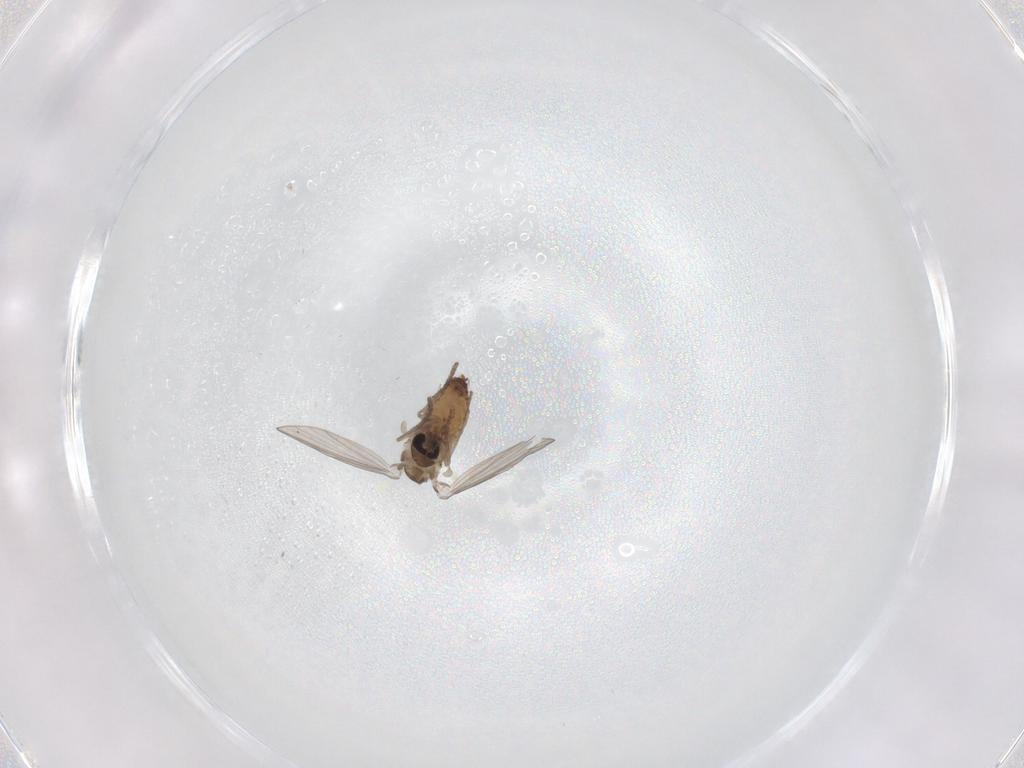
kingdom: Animalia
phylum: Arthropoda
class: Insecta
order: Diptera
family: Psychodidae
